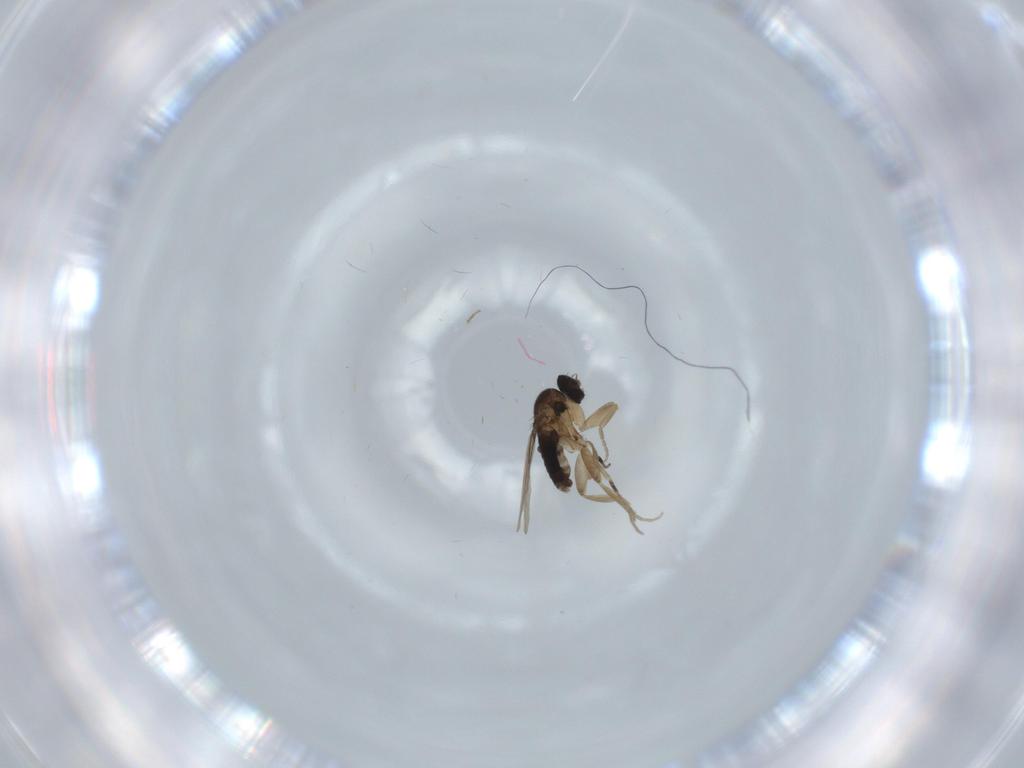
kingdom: Animalia
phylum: Arthropoda
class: Insecta
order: Diptera
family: Phoridae
